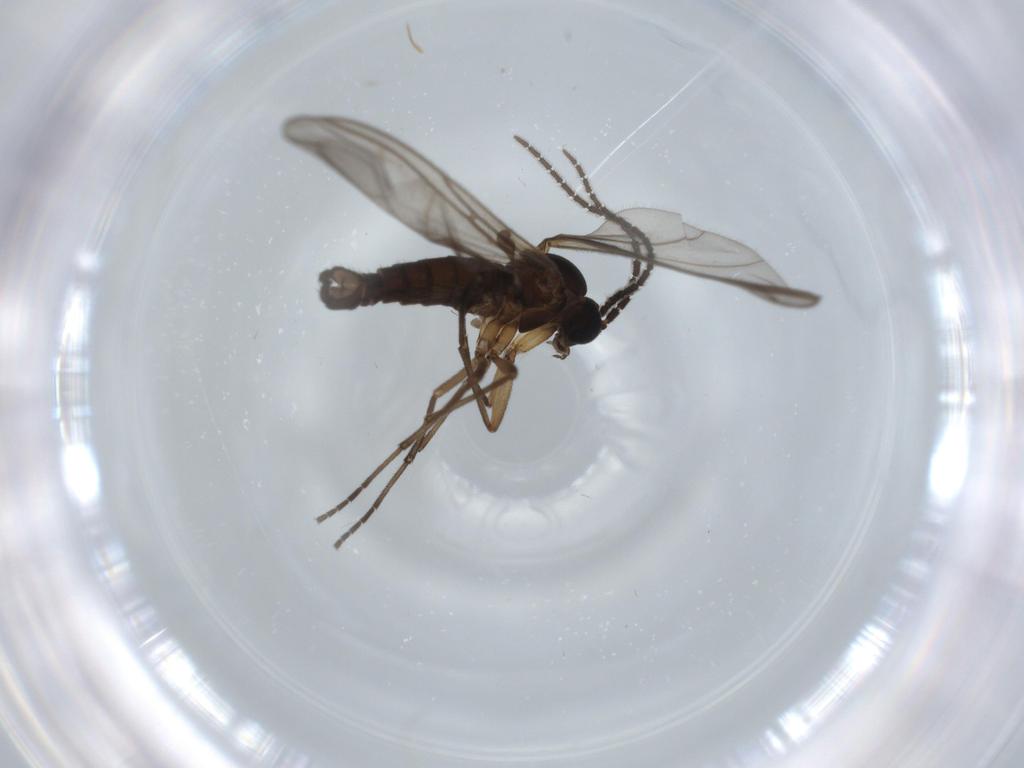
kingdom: Animalia
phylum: Arthropoda
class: Insecta
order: Diptera
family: Sciaridae
